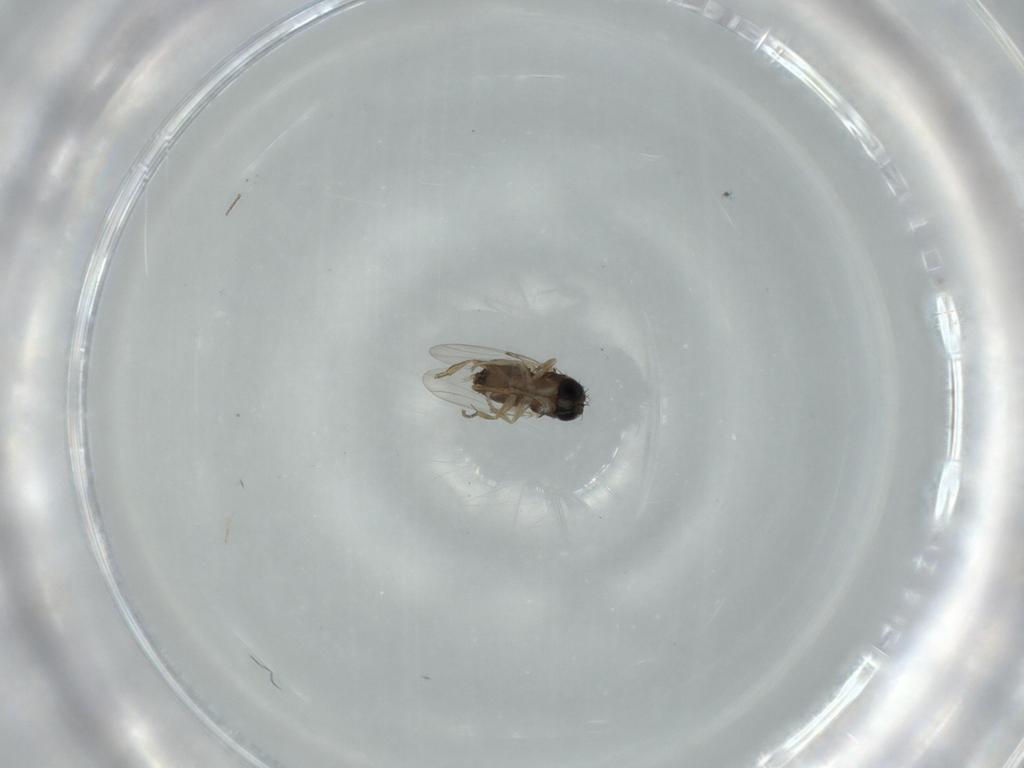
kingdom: Animalia
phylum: Arthropoda
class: Insecta
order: Diptera
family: Phoridae
